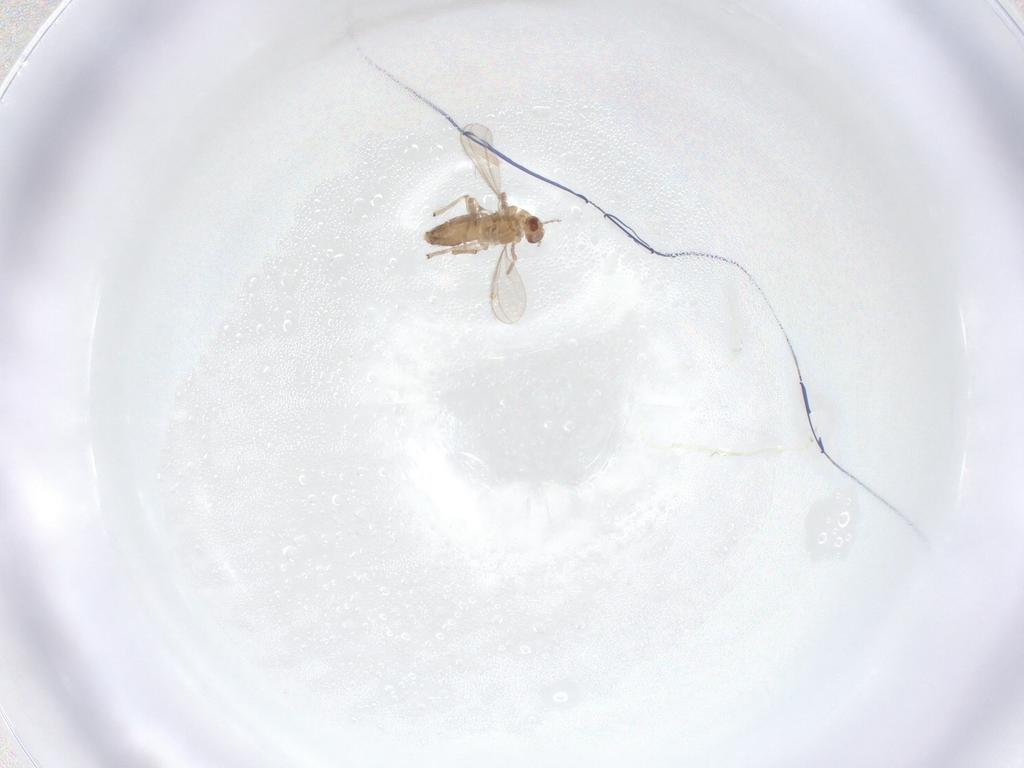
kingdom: Animalia
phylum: Arthropoda
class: Insecta
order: Diptera
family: Chironomidae
